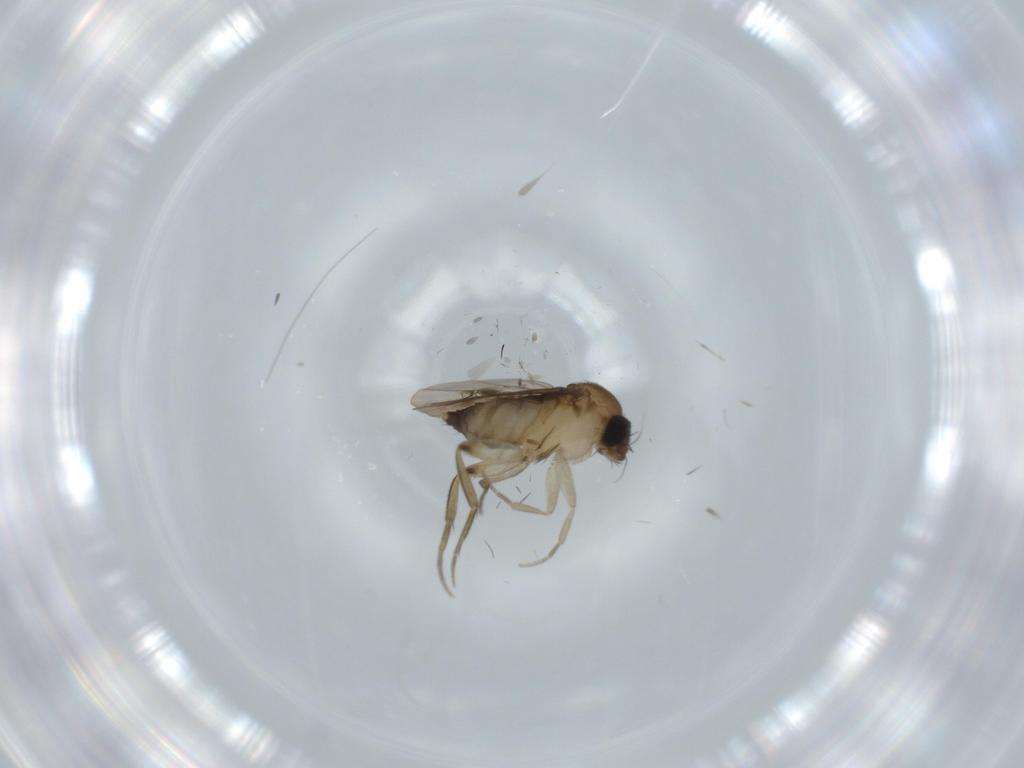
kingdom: Animalia
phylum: Arthropoda
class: Insecta
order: Diptera
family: Phoridae
